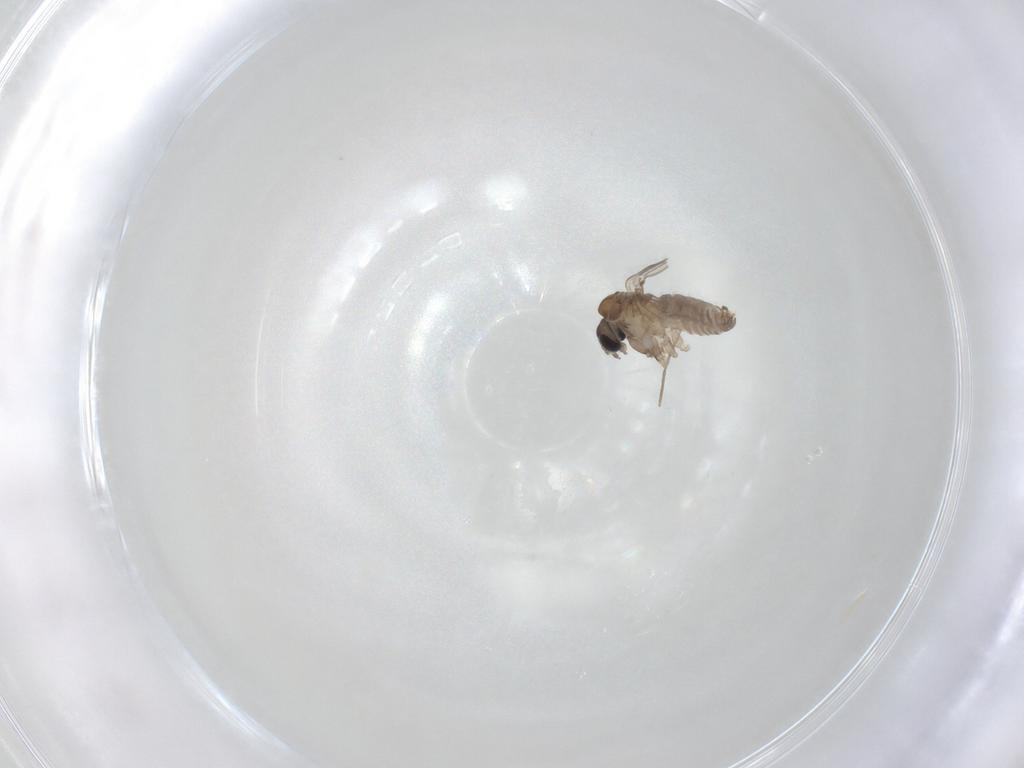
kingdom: Animalia
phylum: Arthropoda
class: Insecta
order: Diptera
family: Psychodidae
